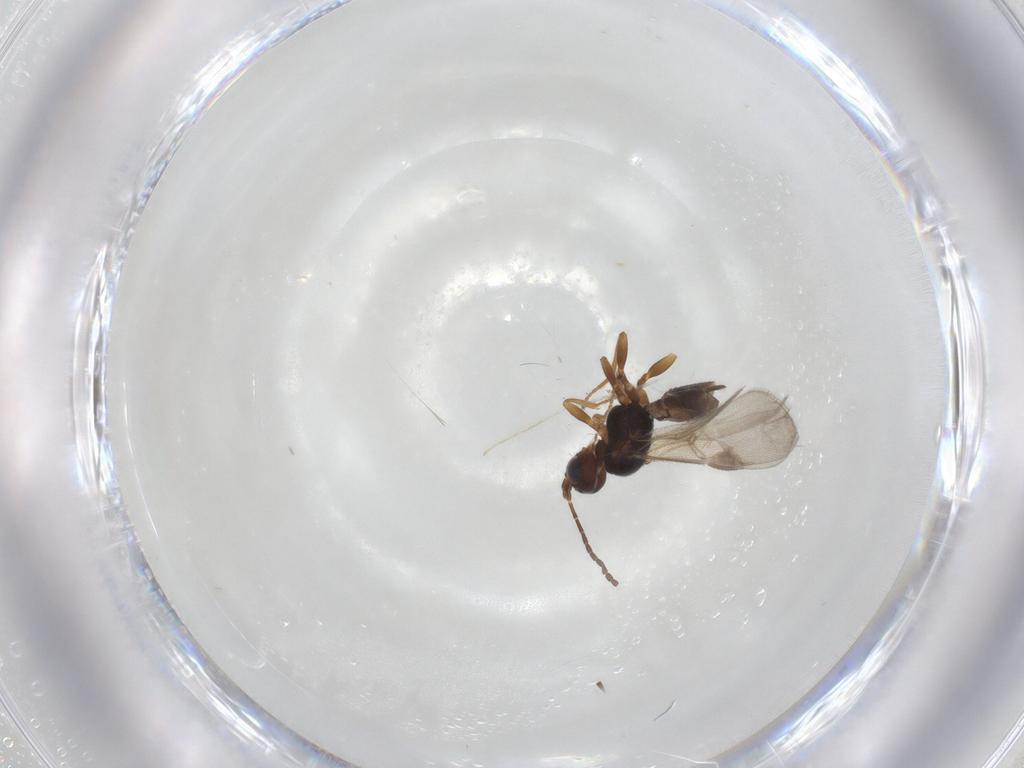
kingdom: Animalia
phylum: Arthropoda
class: Insecta
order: Hymenoptera
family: Braconidae
